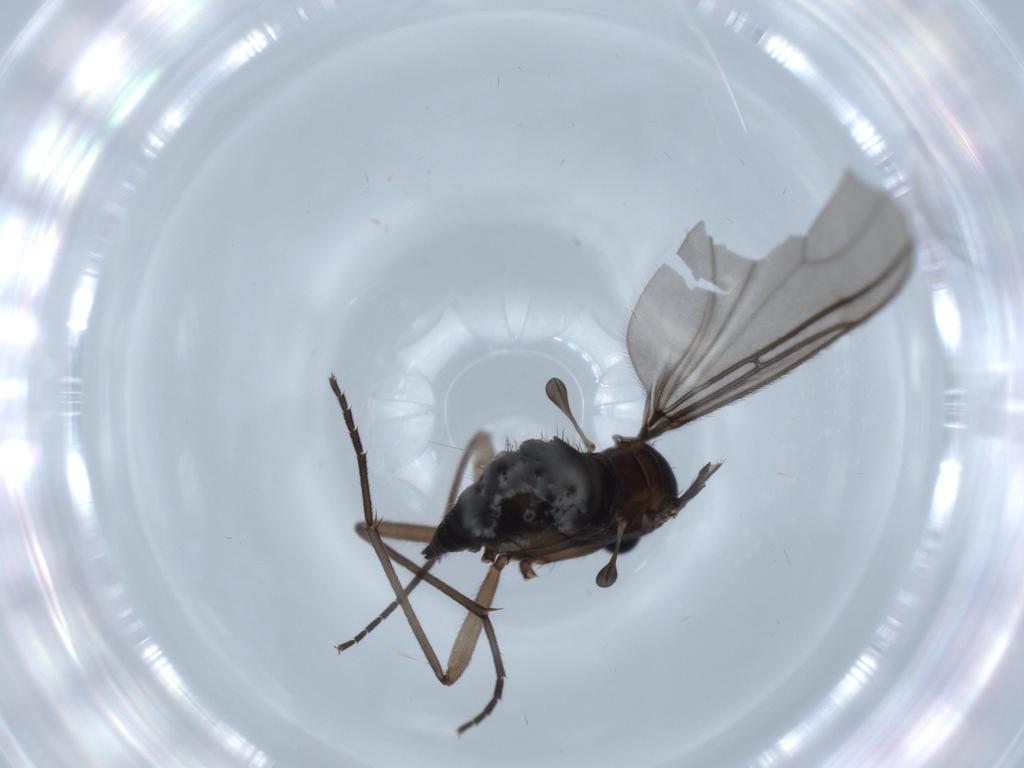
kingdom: Animalia
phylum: Arthropoda
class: Insecta
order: Diptera
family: Sciaridae
